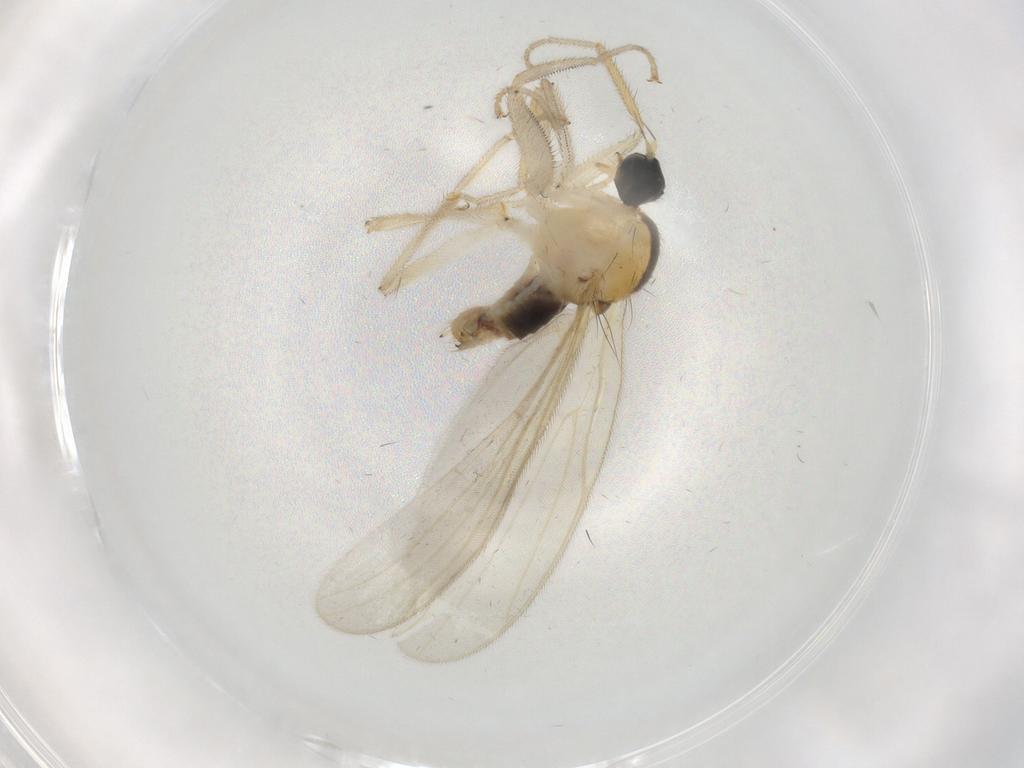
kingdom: Animalia
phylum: Arthropoda
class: Insecta
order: Diptera
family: Hybotidae
